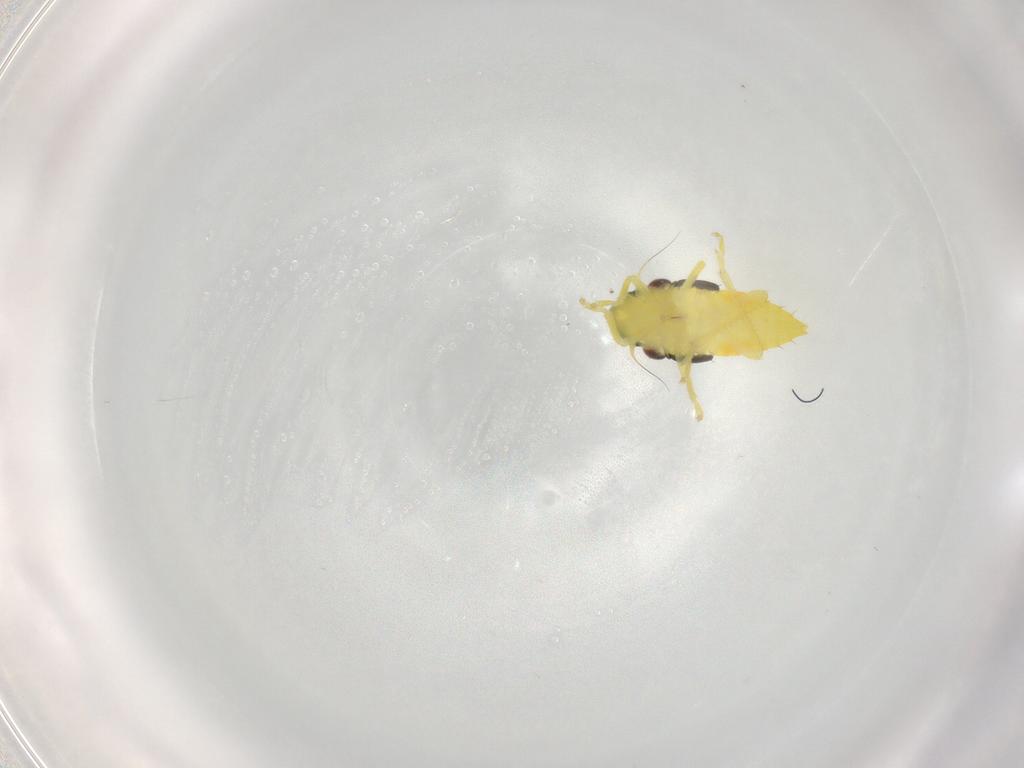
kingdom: Animalia
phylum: Arthropoda
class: Insecta
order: Hemiptera
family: Cicadellidae
